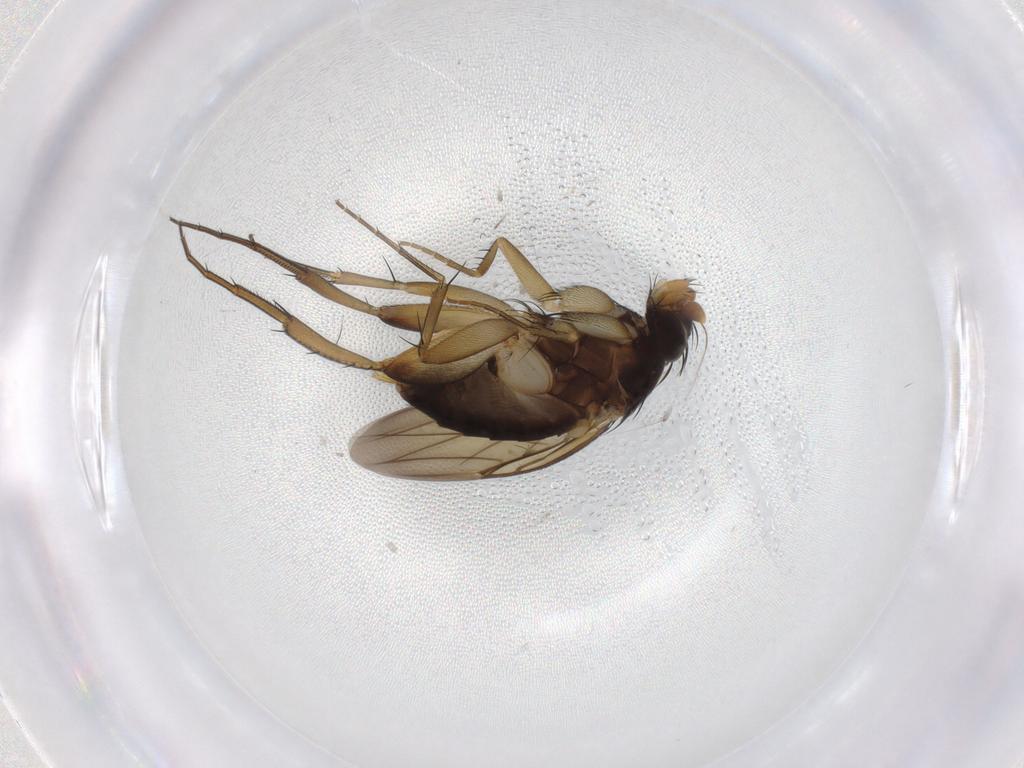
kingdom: Animalia
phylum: Arthropoda
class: Insecta
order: Diptera
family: Phoridae
